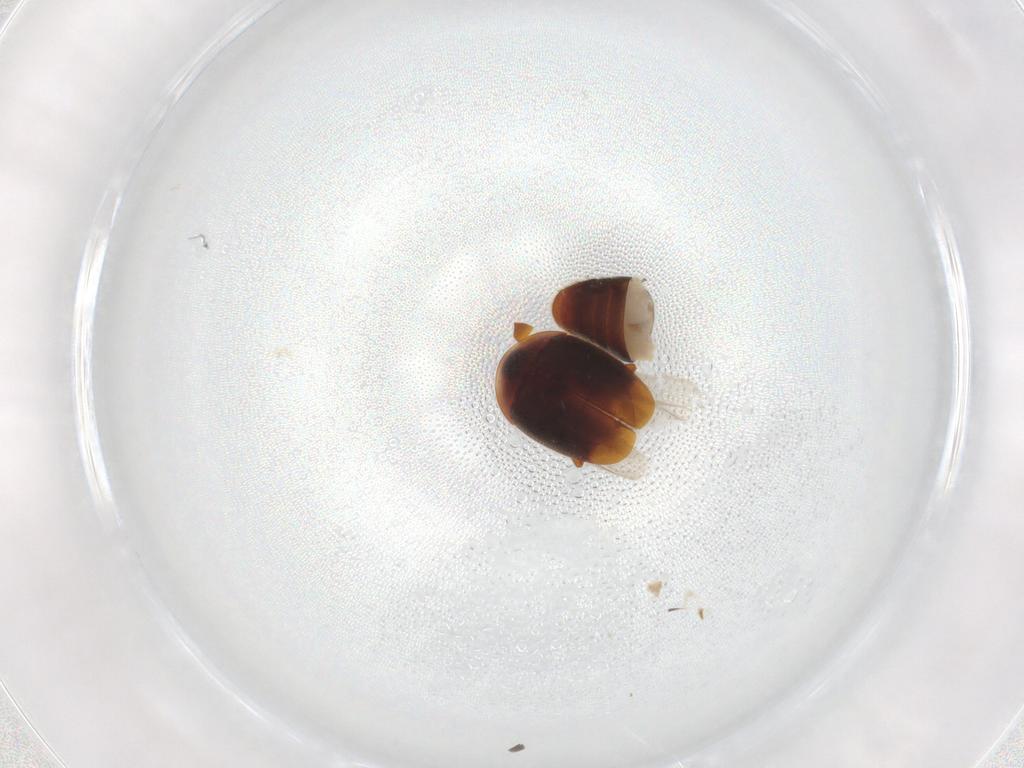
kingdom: Animalia
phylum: Arthropoda
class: Insecta
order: Coleoptera
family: Corylophidae
